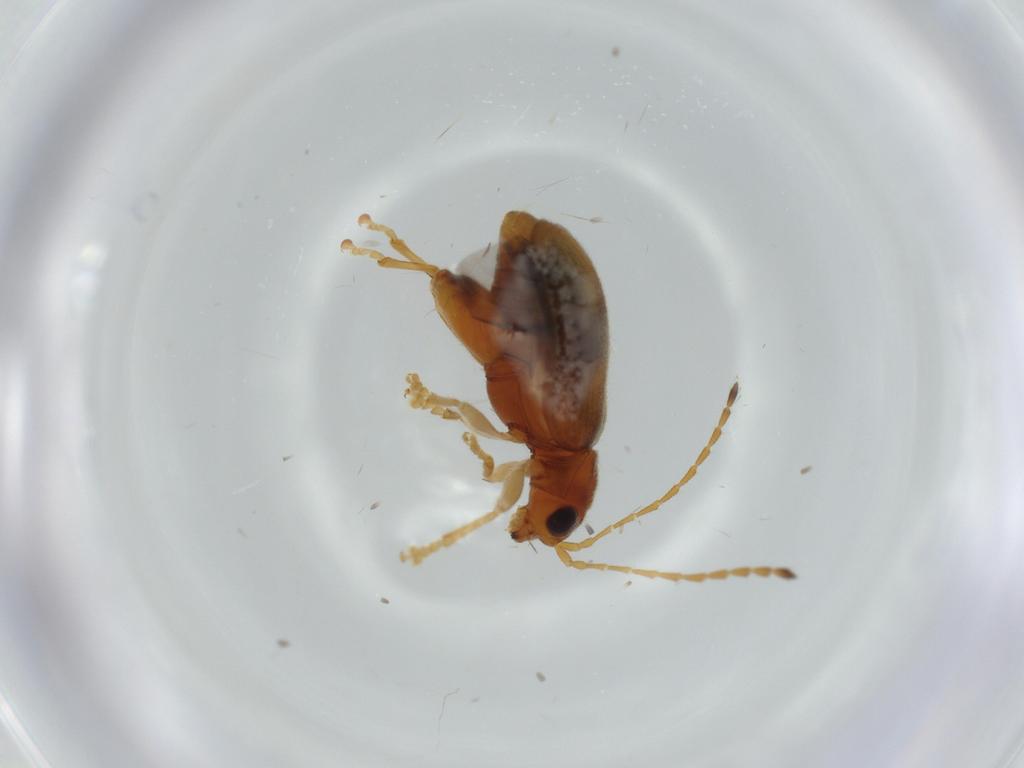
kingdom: Animalia
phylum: Arthropoda
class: Insecta
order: Coleoptera
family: Chrysomelidae
